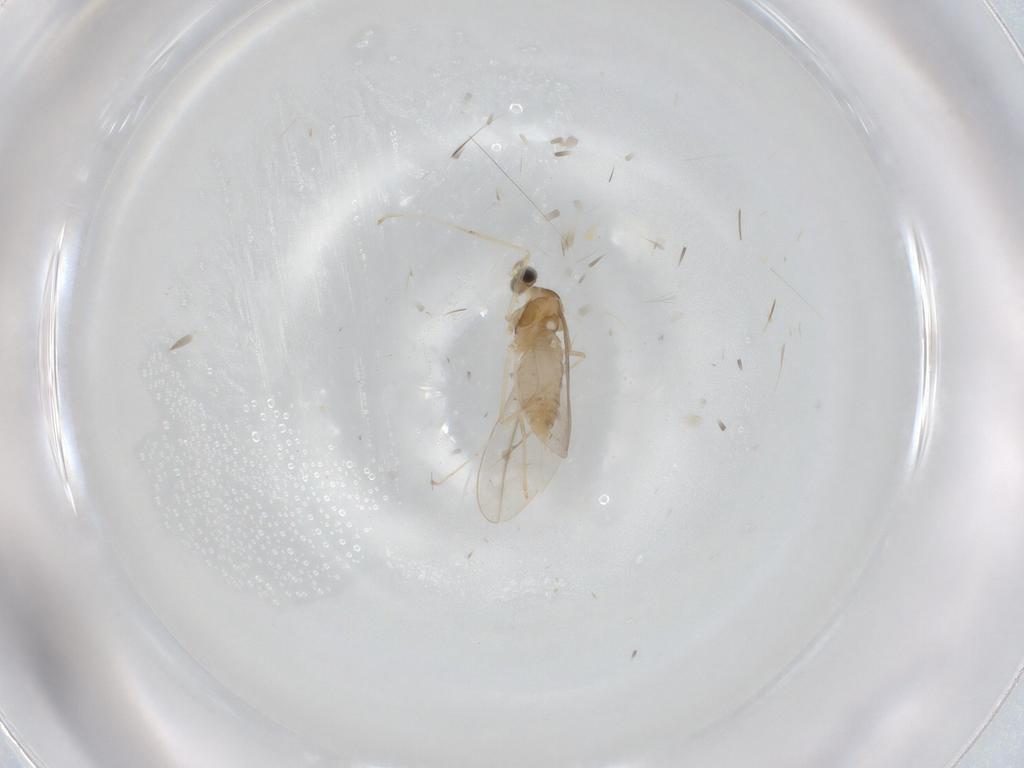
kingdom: Animalia
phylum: Arthropoda
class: Insecta
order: Diptera
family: Cecidomyiidae
